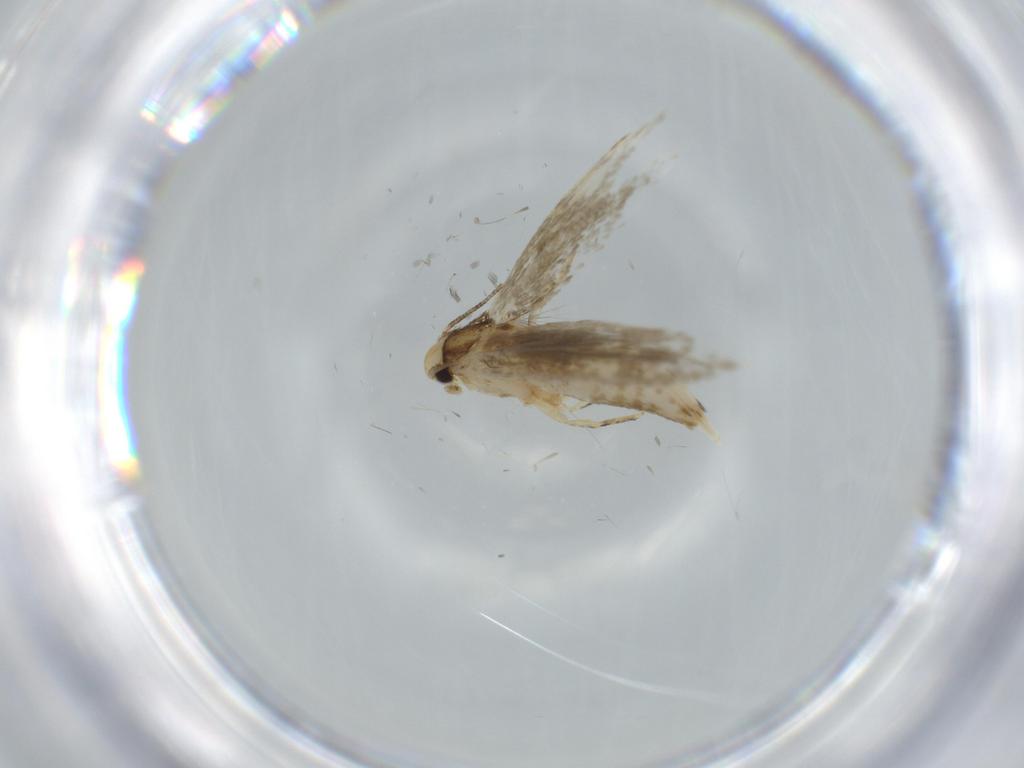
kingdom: Animalia
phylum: Arthropoda
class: Insecta
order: Lepidoptera
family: Tineidae
